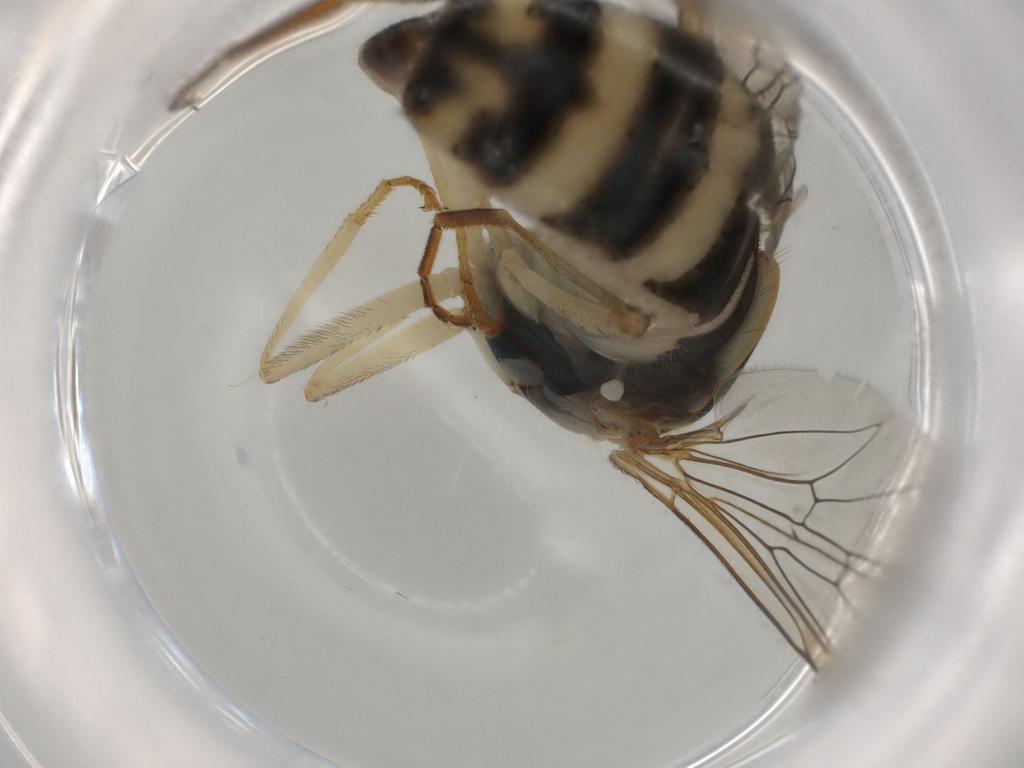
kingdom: Animalia
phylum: Arthropoda
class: Insecta
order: Diptera
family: Syrphidae
